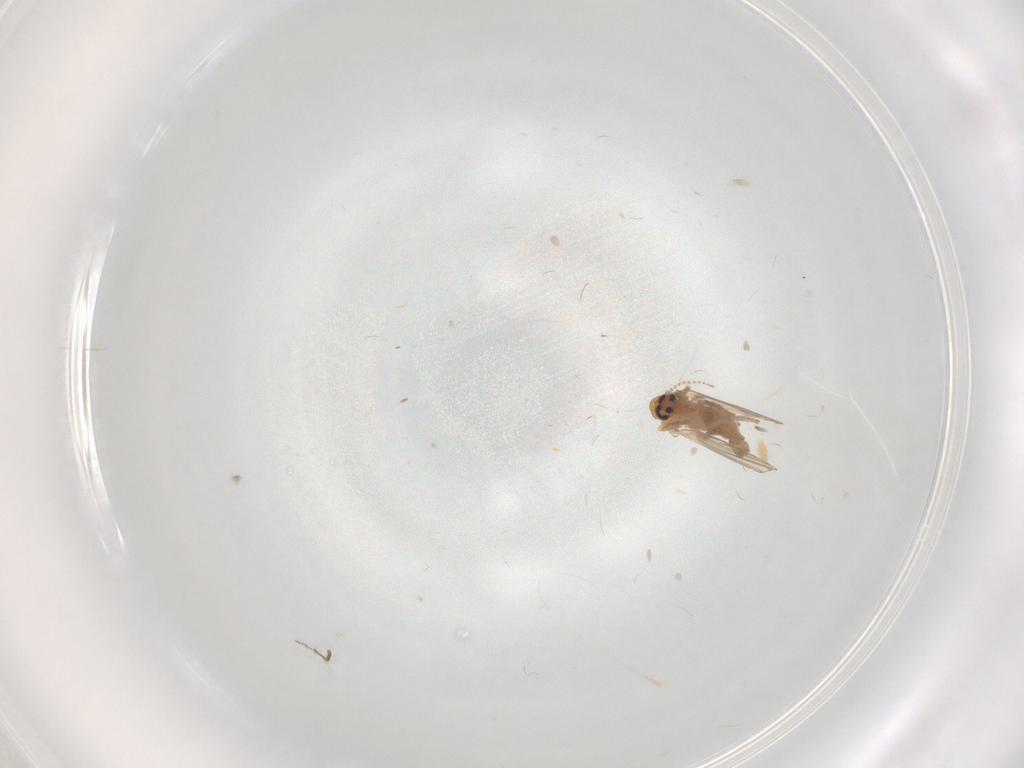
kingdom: Animalia
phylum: Arthropoda
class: Insecta
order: Diptera
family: Psychodidae
